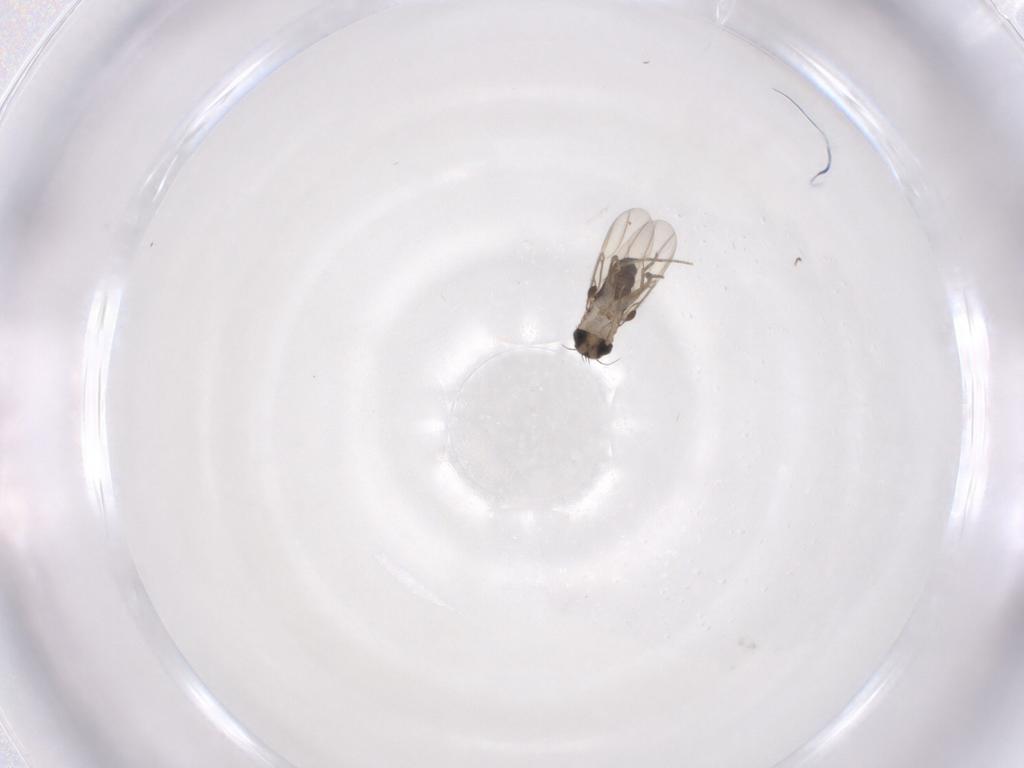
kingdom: Animalia
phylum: Arthropoda
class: Insecta
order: Diptera
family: Phoridae
